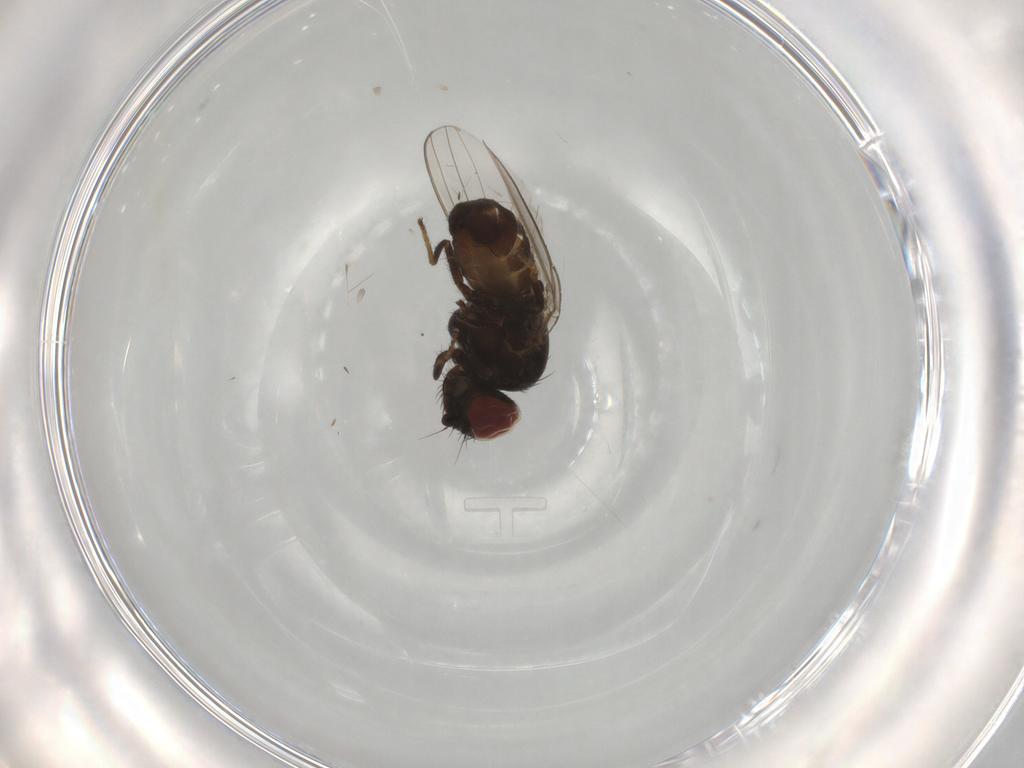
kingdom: Animalia
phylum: Arthropoda
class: Insecta
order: Diptera
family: Milichiidae
